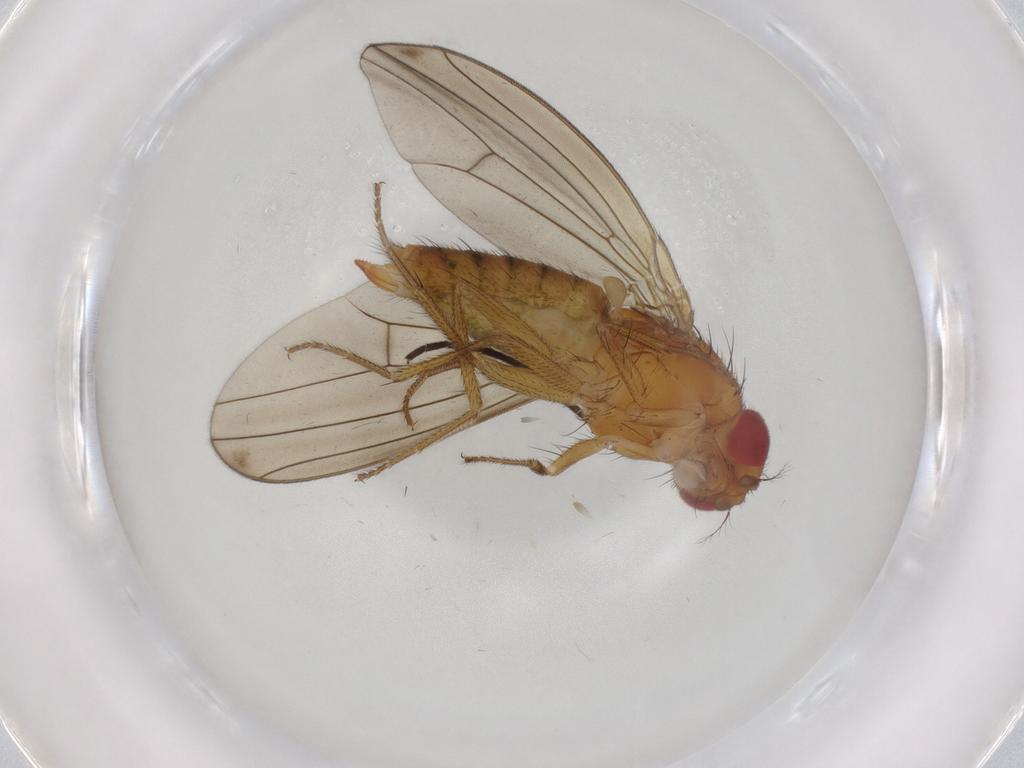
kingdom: Animalia
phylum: Arthropoda
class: Insecta
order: Diptera
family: Drosophilidae
